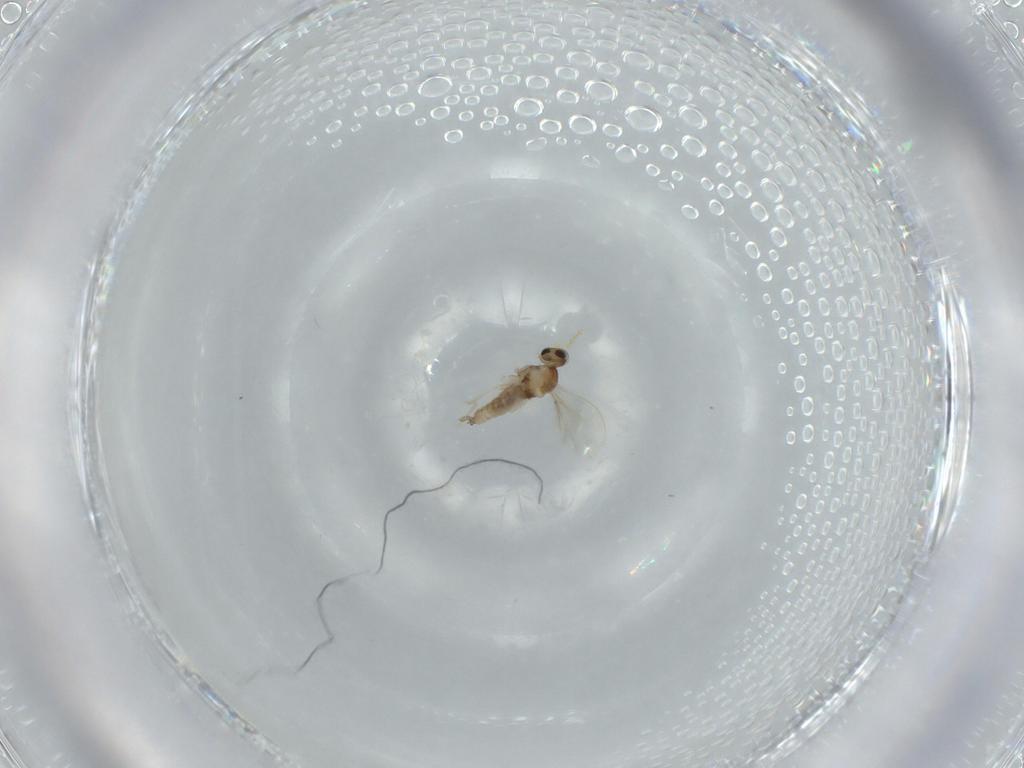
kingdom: Animalia
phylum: Arthropoda
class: Insecta
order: Diptera
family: Cecidomyiidae
